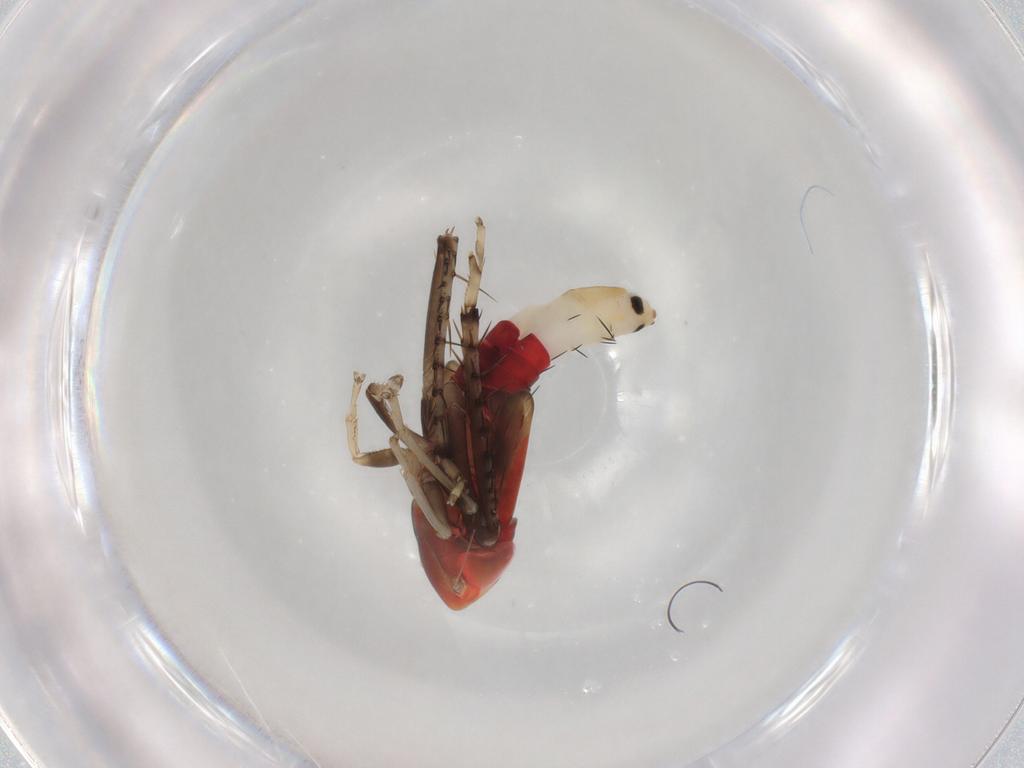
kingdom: Animalia
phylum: Arthropoda
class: Insecta
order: Hemiptera
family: Cicadellidae
